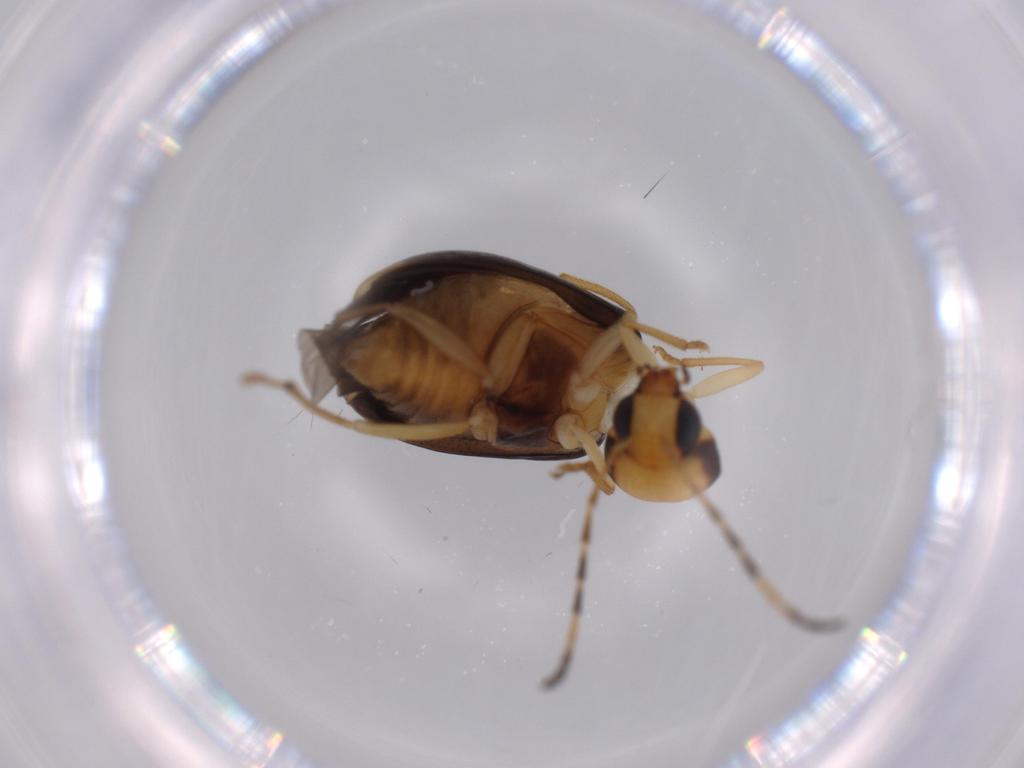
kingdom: Animalia
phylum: Arthropoda
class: Insecta
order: Coleoptera
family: Chrysomelidae
